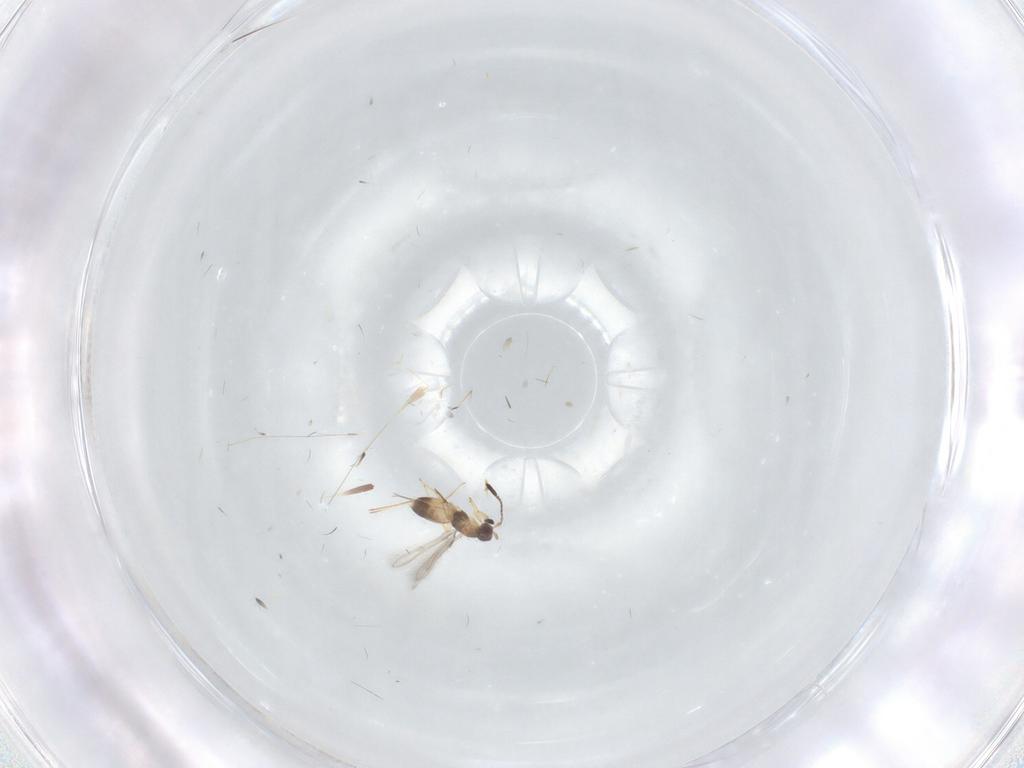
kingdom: Animalia
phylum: Arthropoda
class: Insecta
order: Hymenoptera
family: Mymaridae
